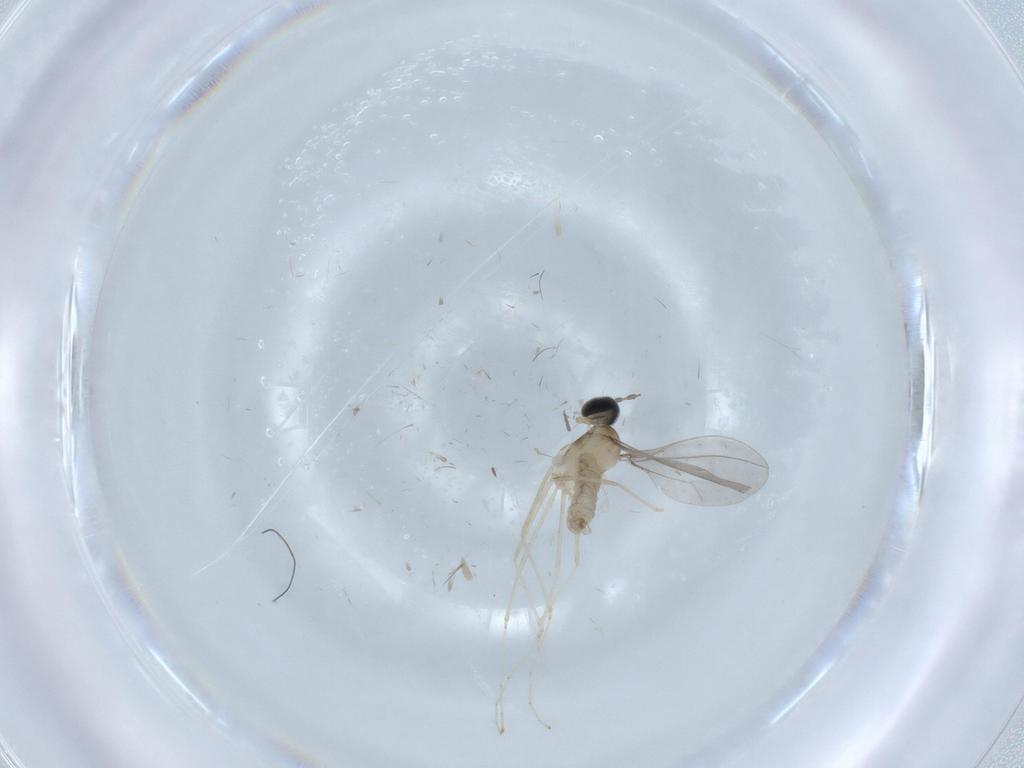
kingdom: Animalia
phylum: Arthropoda
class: Insecta
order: Diptera
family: Cecidomyiidae
